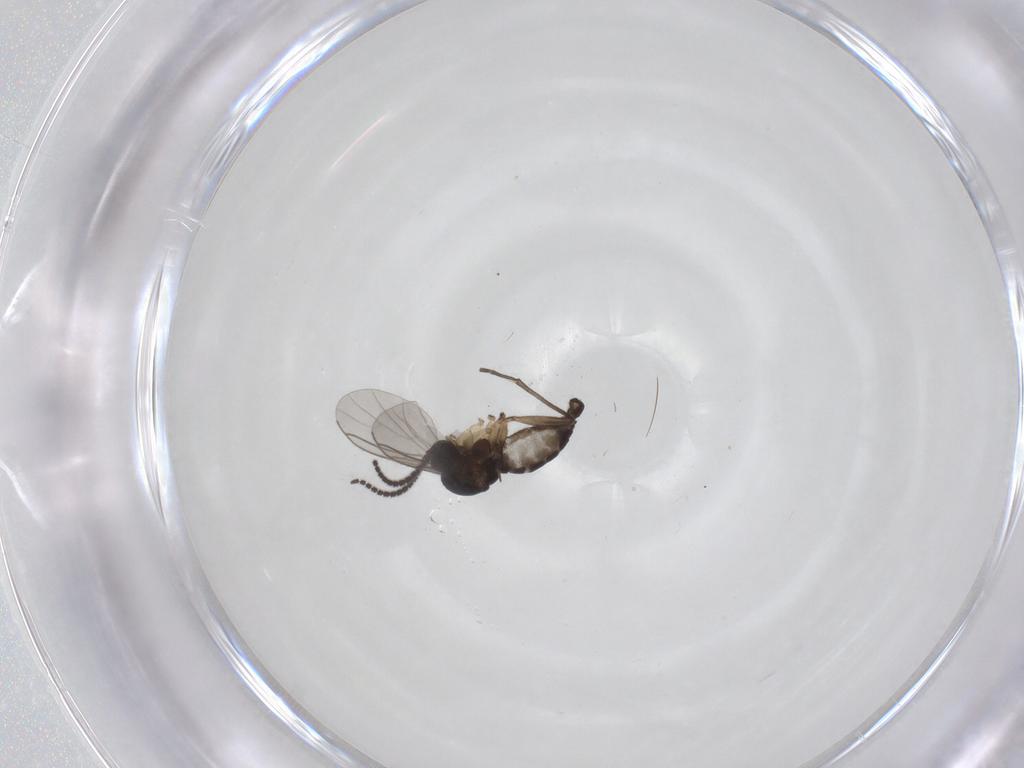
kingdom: Animalia
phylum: Arthropoda
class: Insecta
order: Diptera
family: Sciaridae
